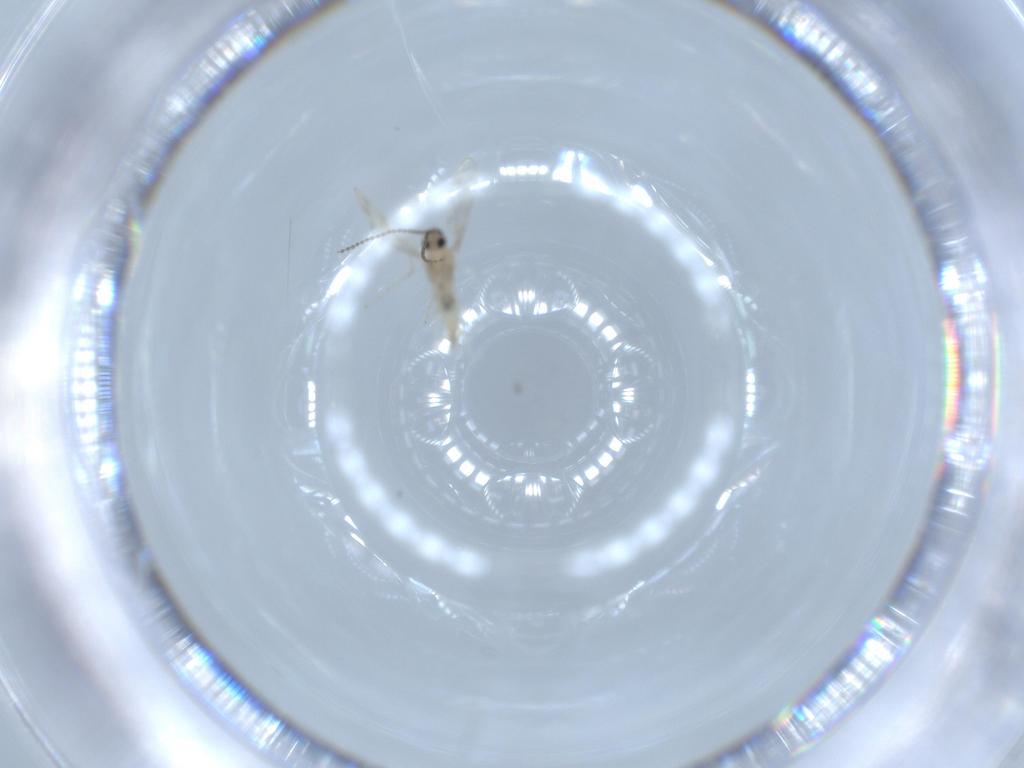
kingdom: Animalia
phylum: Arthropoda
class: Insecta
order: Diptera
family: Cecidomyiidae
